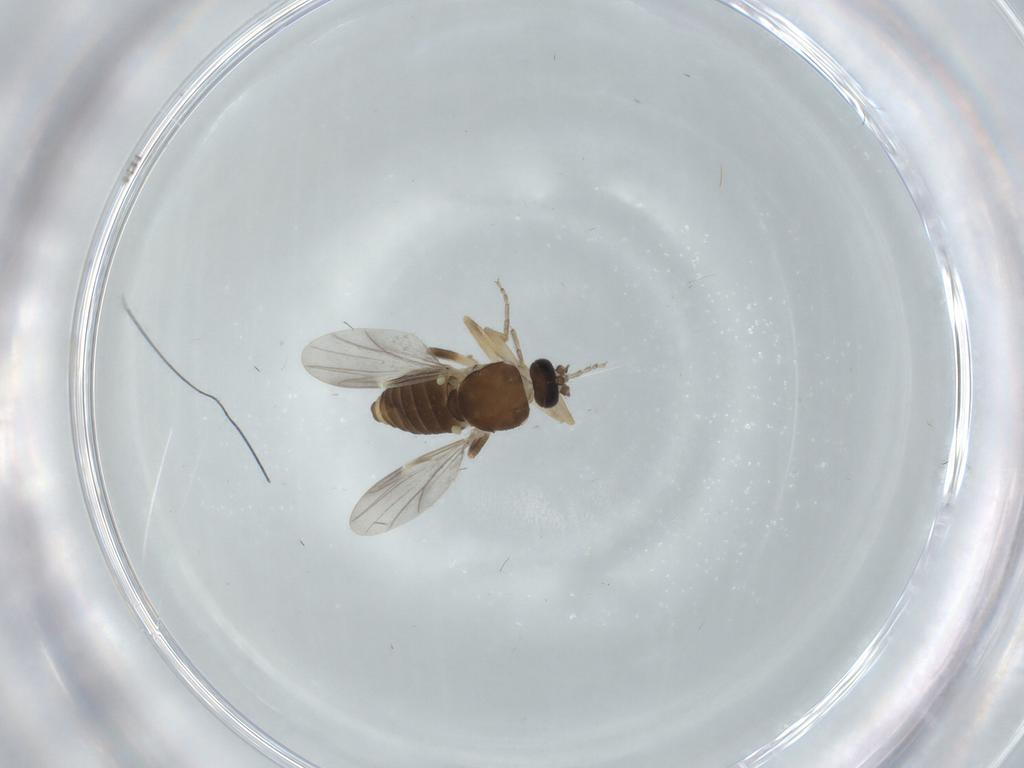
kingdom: Animalia
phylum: Arthropoda
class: Insecta
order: Diptera
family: Ceratopogonidae
